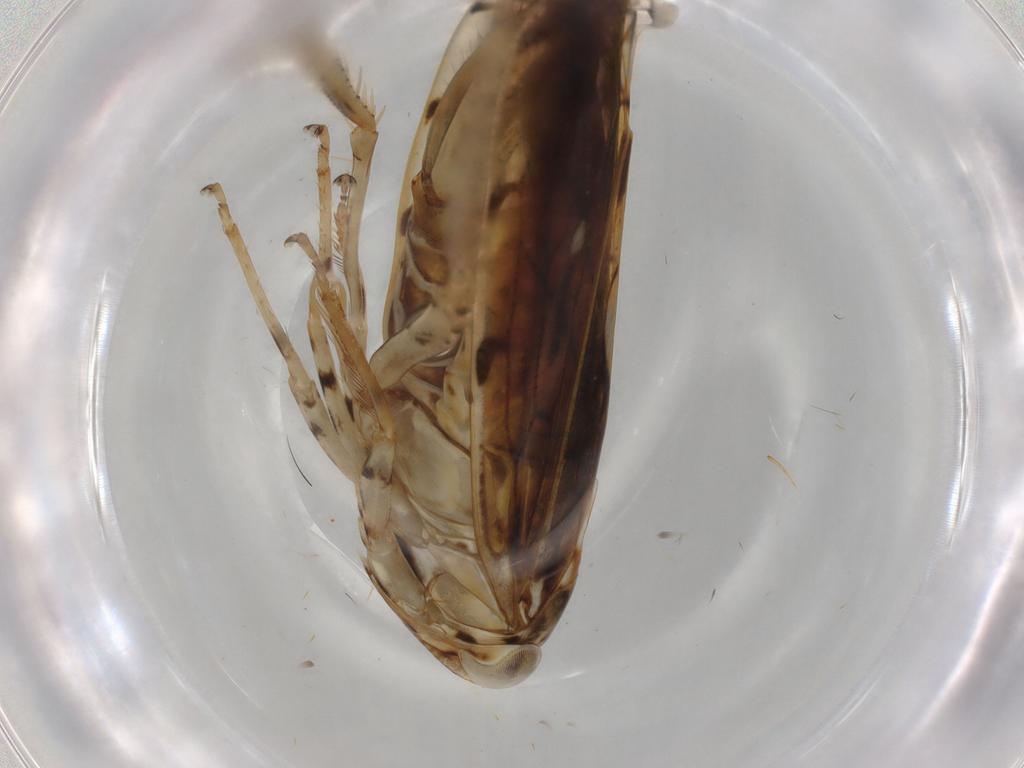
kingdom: Animalia
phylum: Arthropoda
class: Insecta
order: Hemiptera
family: Cicadellidae
